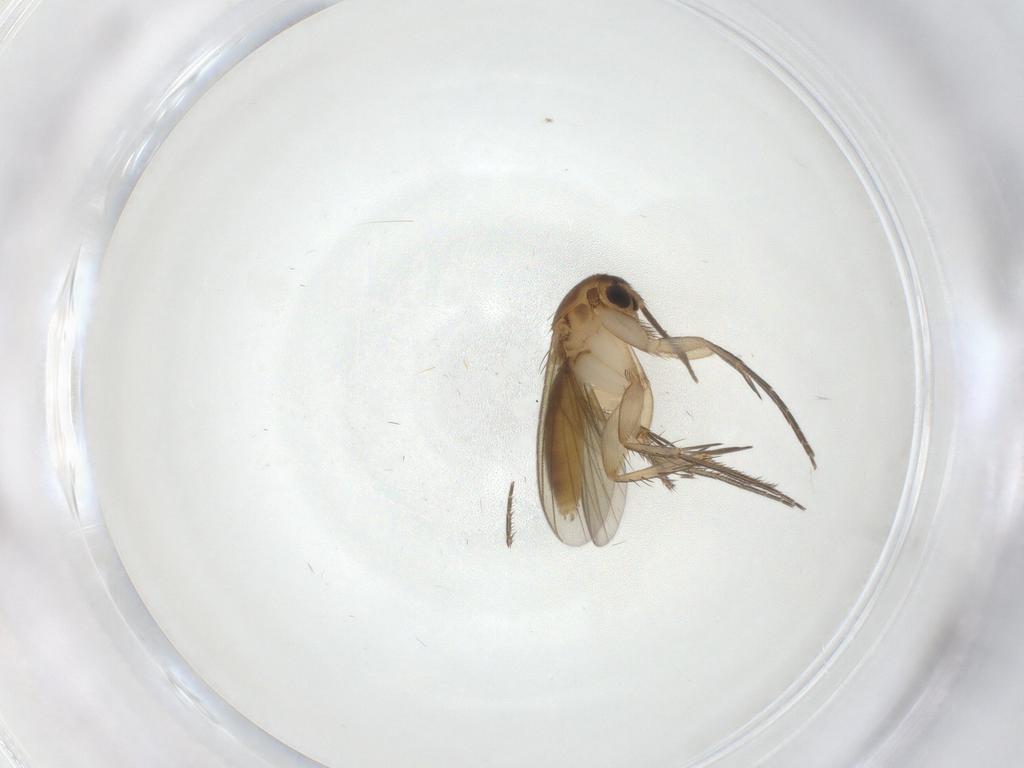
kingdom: Animalia
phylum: Arthropoda
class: Insecta
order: Diptera
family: Mycetophilidae
